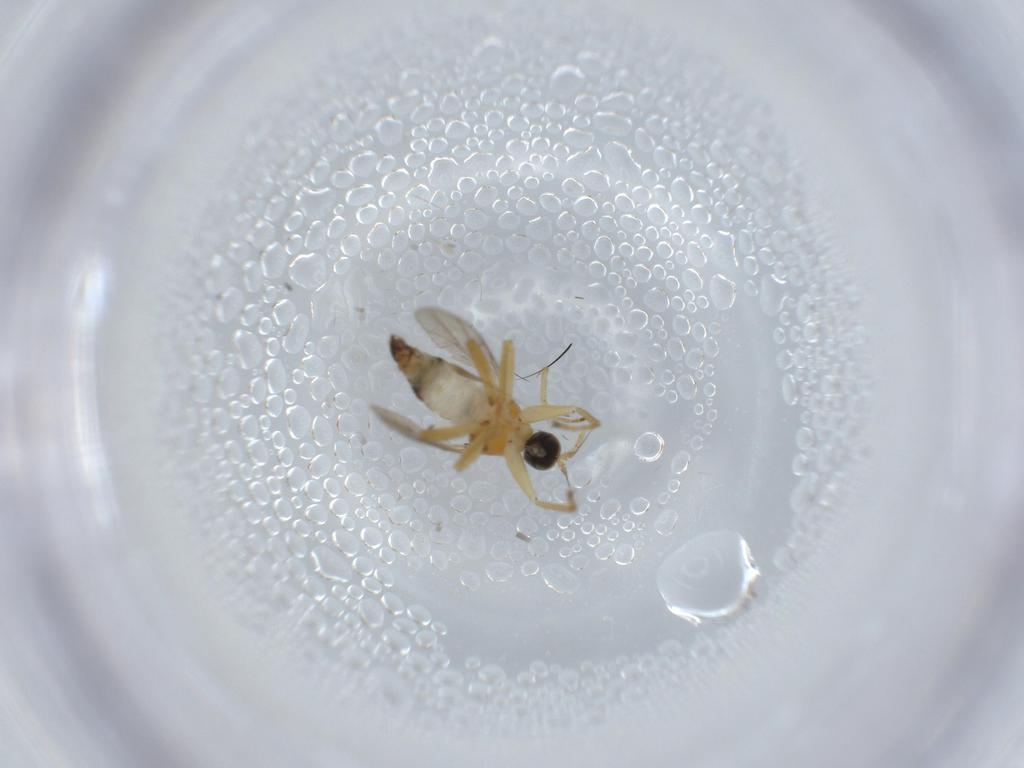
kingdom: Animalia
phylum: Arthropoda
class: Insecta
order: Diptera
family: Hybotidae
